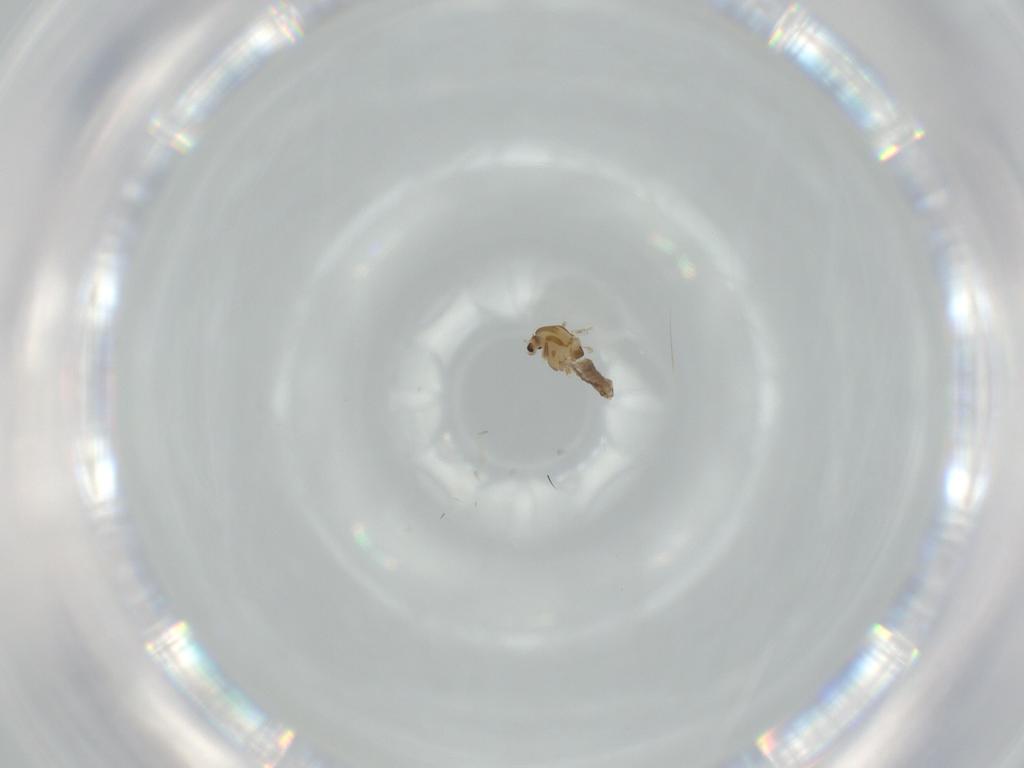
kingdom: Animalia
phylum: Arthropoda
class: Insecta
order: Diptera
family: Chironomidae
